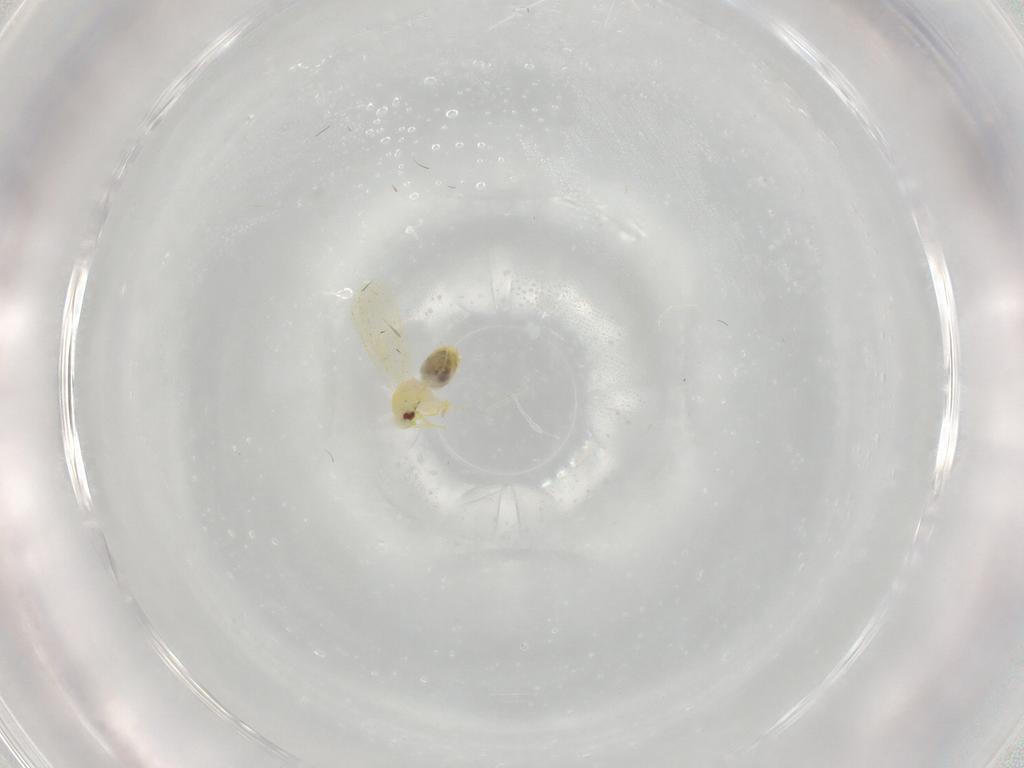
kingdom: Animalia
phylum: Arthropoda
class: Insecta
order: Hemiptera
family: Aleyrodidae
